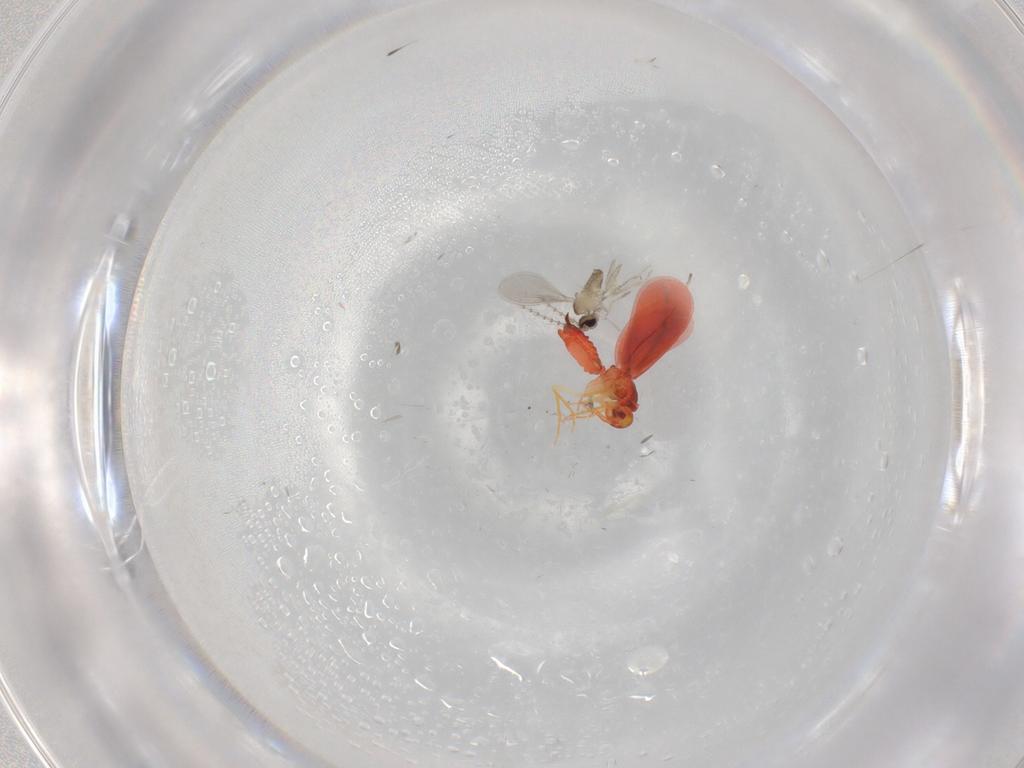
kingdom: Animalia
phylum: Arthropoda
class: Insecta
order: Diptera
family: Cecidomyiidae
